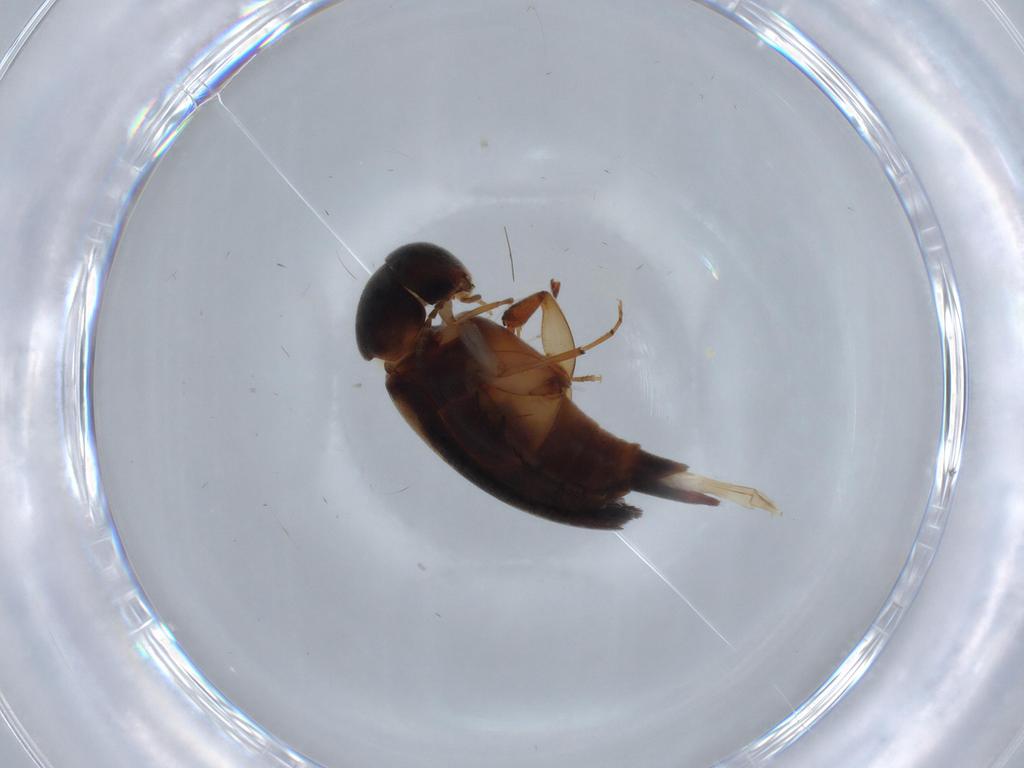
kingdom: Animalia
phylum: Arthropoda
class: Insecta
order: Coleoptera
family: Mordellidae
